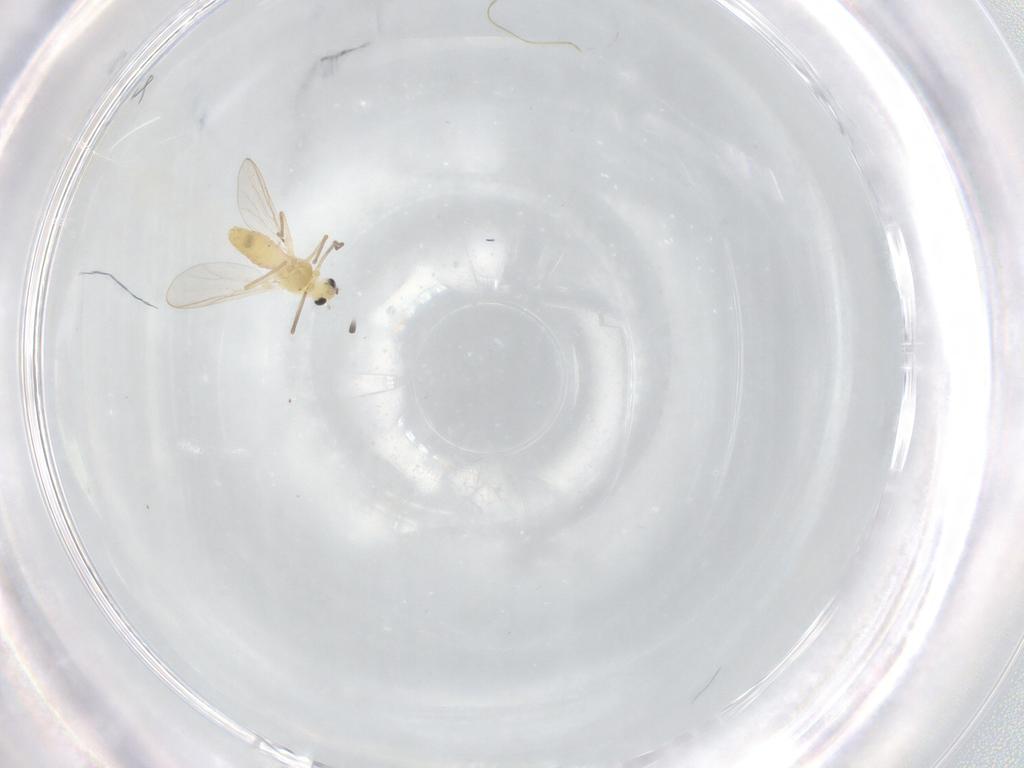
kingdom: Animalia
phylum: Arthropoda
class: Insecta
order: Diptera
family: Chironomidae
